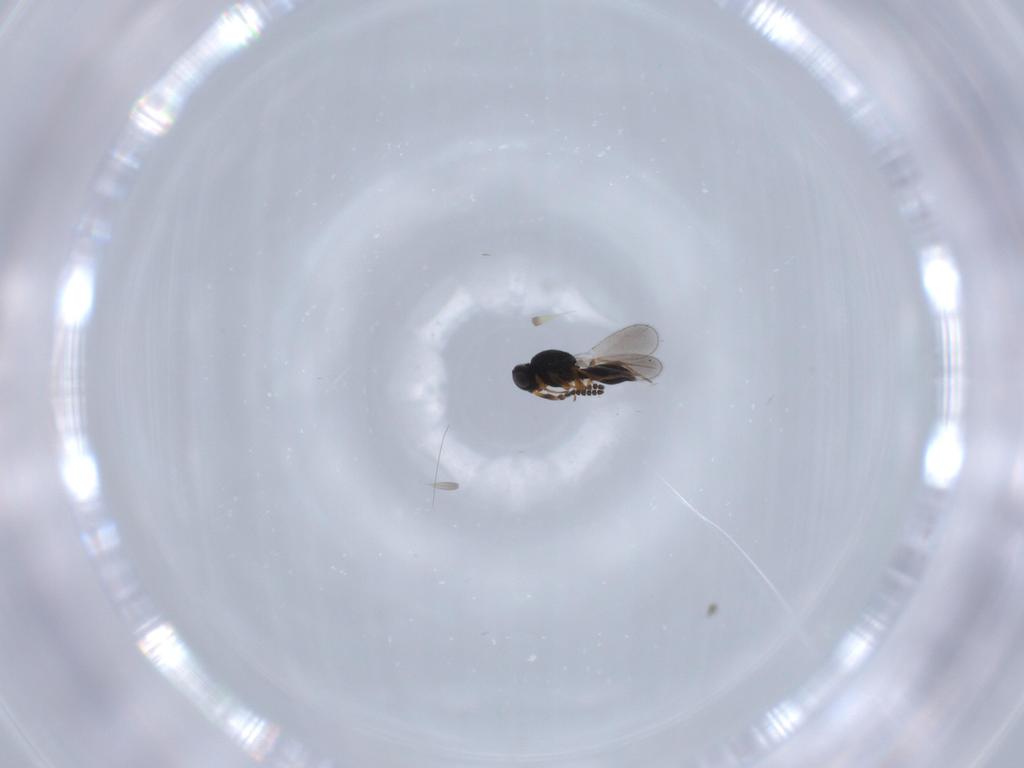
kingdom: Animalia
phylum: Arthropoda
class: Insecta
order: Hymenoptera
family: Platygastridae
